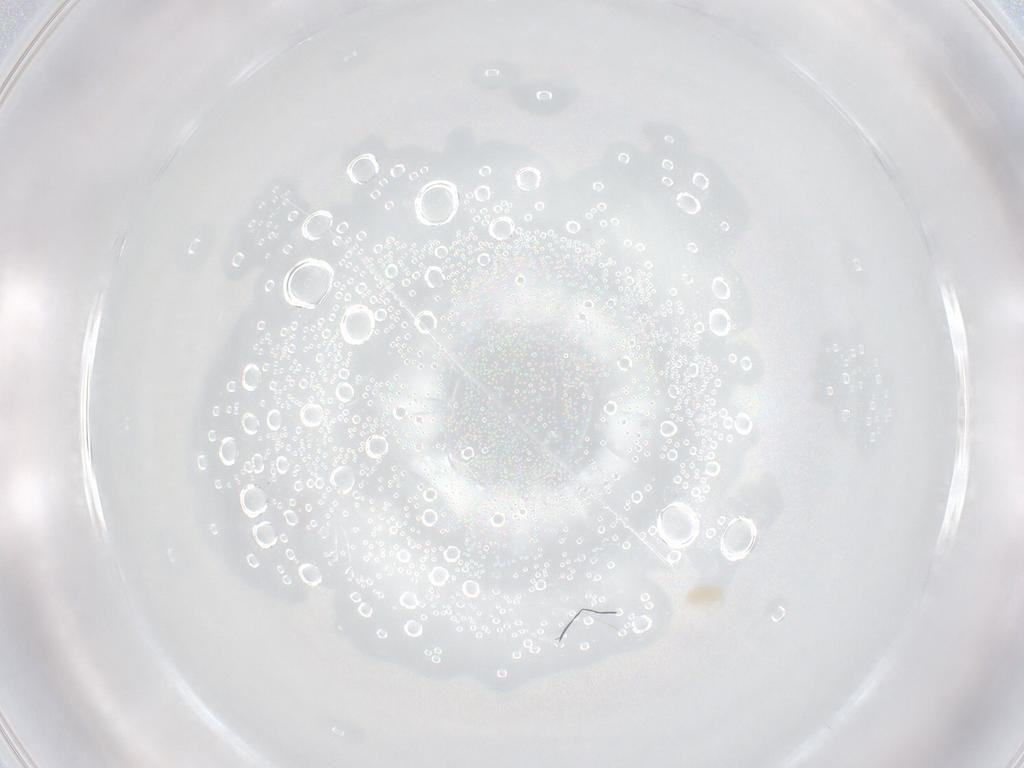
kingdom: Animalia
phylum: Arthropoda
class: Arachnida
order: Trombidiformes
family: Eupodidae
